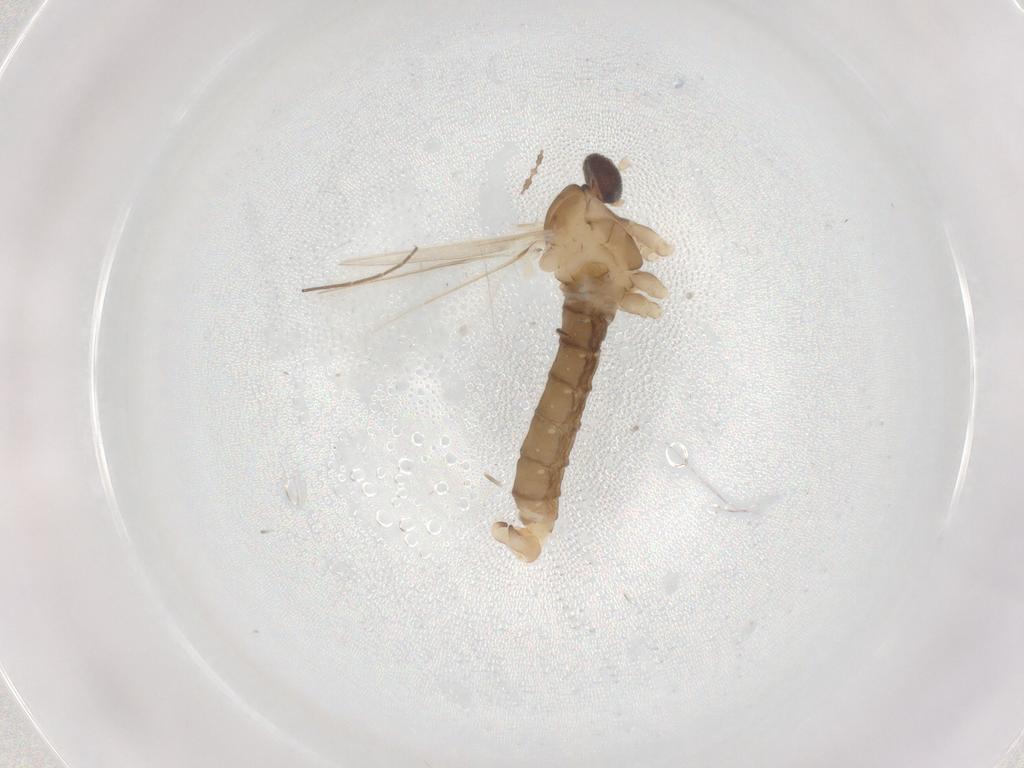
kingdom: Animalia
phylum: Arthropoda
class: Insecta
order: Diptera
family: Cecidomyiidae
